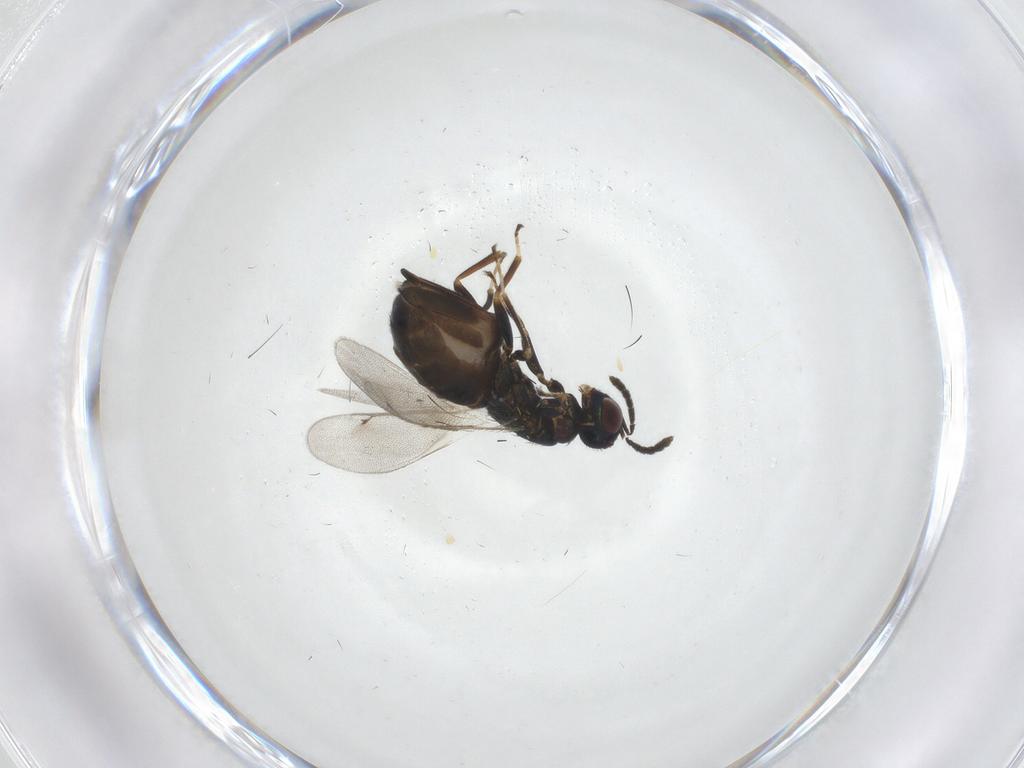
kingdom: Animalia
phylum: Arthropoda
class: Insecta
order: Hymenoptera
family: Eulophidae
